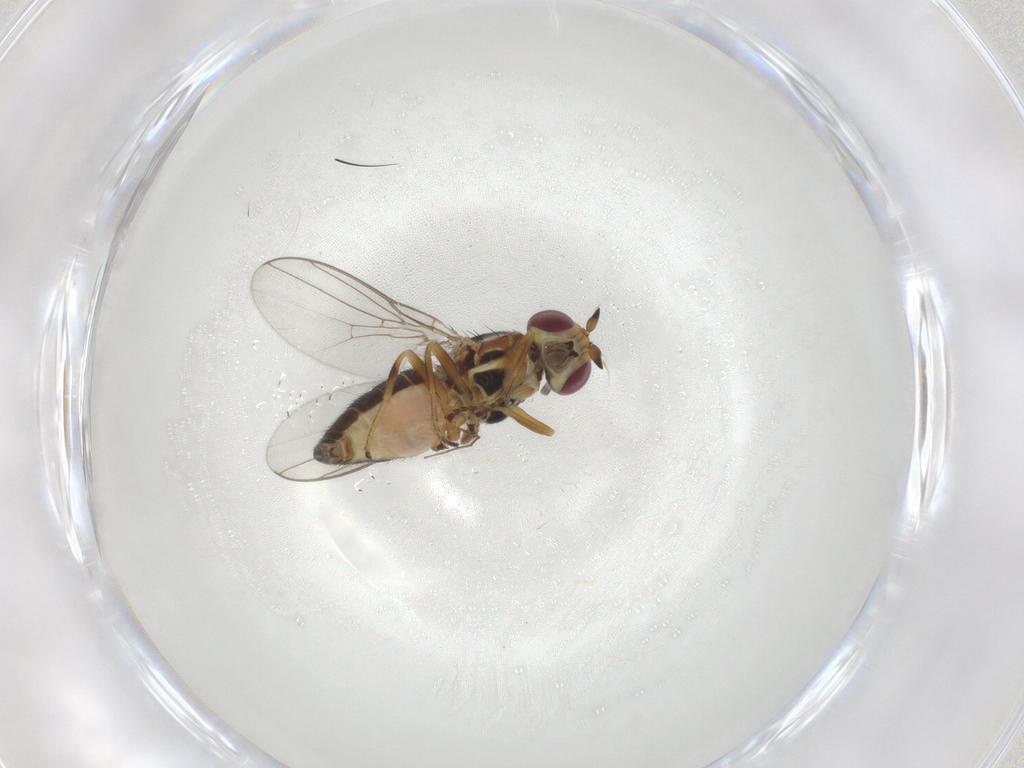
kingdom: Animalia
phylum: Arthropoda
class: Insecta
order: Diptera
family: Chloropidae
